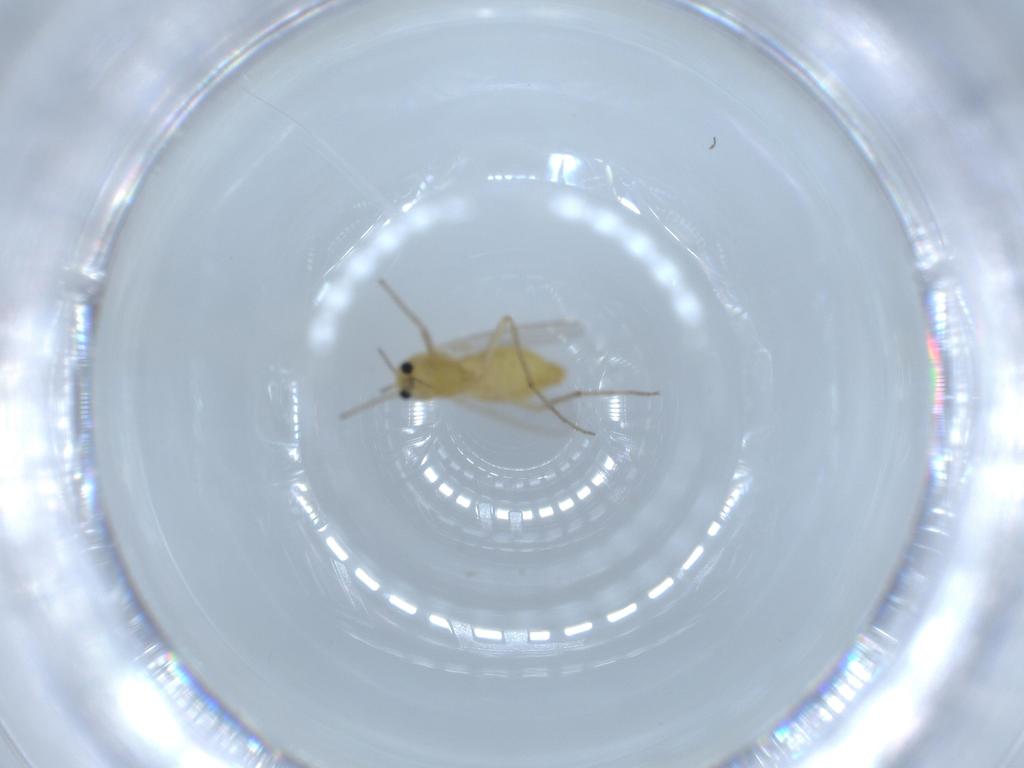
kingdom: Animalia
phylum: Arthropoda
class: Insecta
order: Diptera
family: Chironomidae
